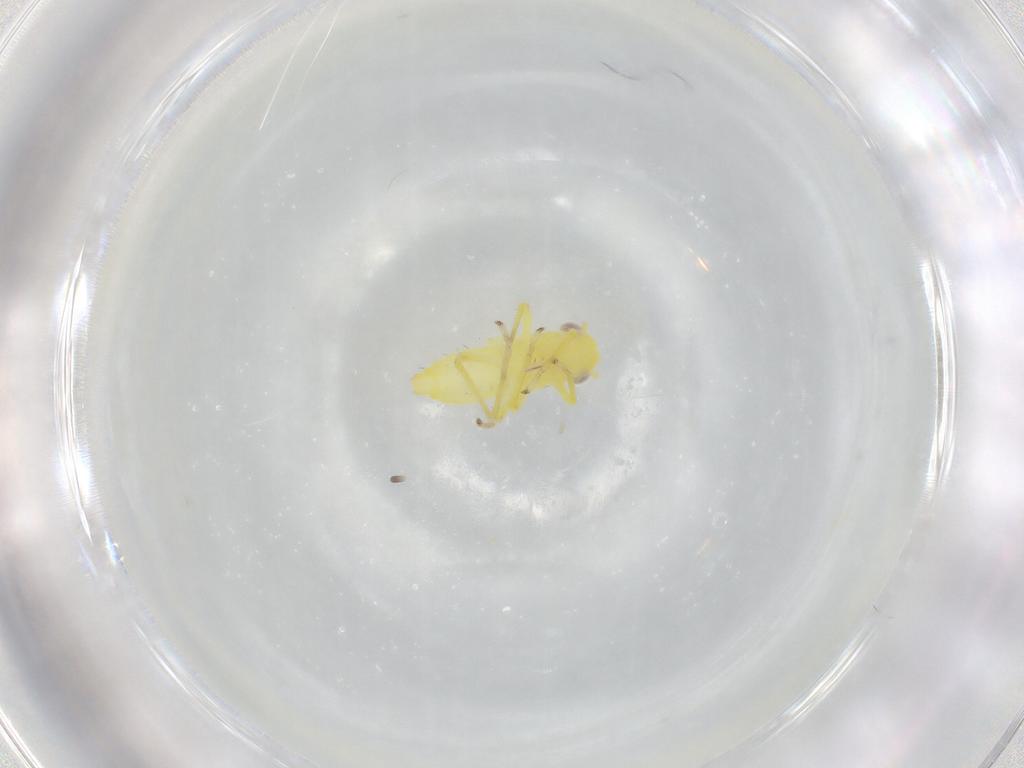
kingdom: Animalia
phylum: Arthropoda
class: Insecta
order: Hemiptera
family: Cicadellidae
